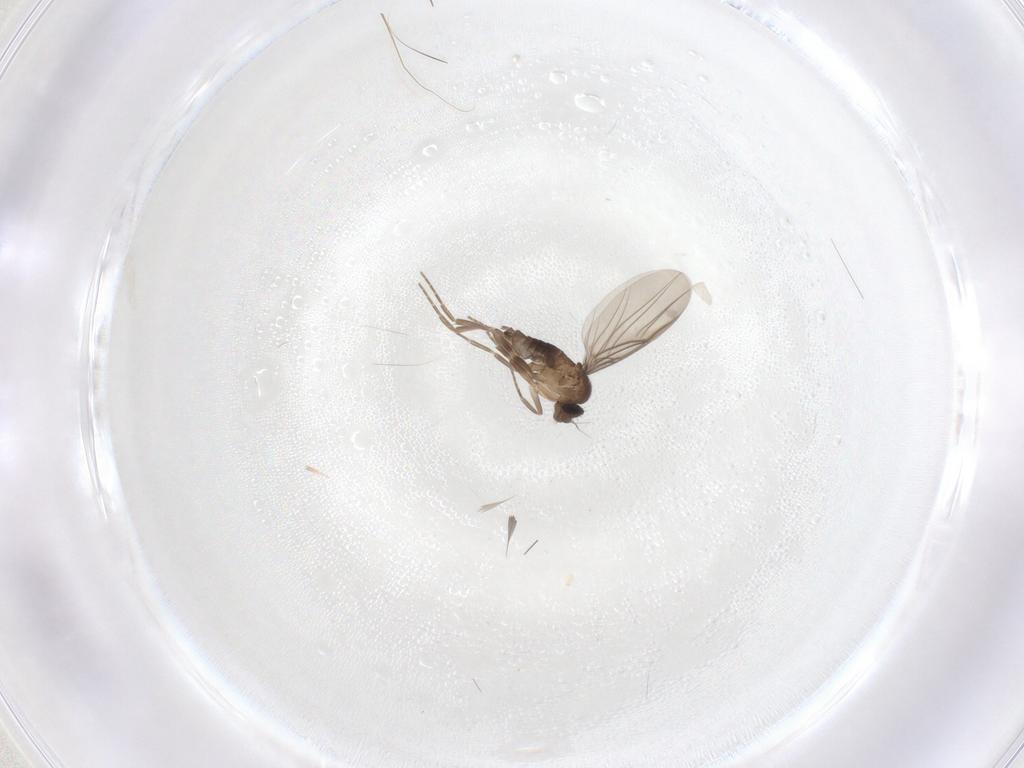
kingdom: Animalia
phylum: Arthropoda
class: Insecta
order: Diptera
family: Phoridae
